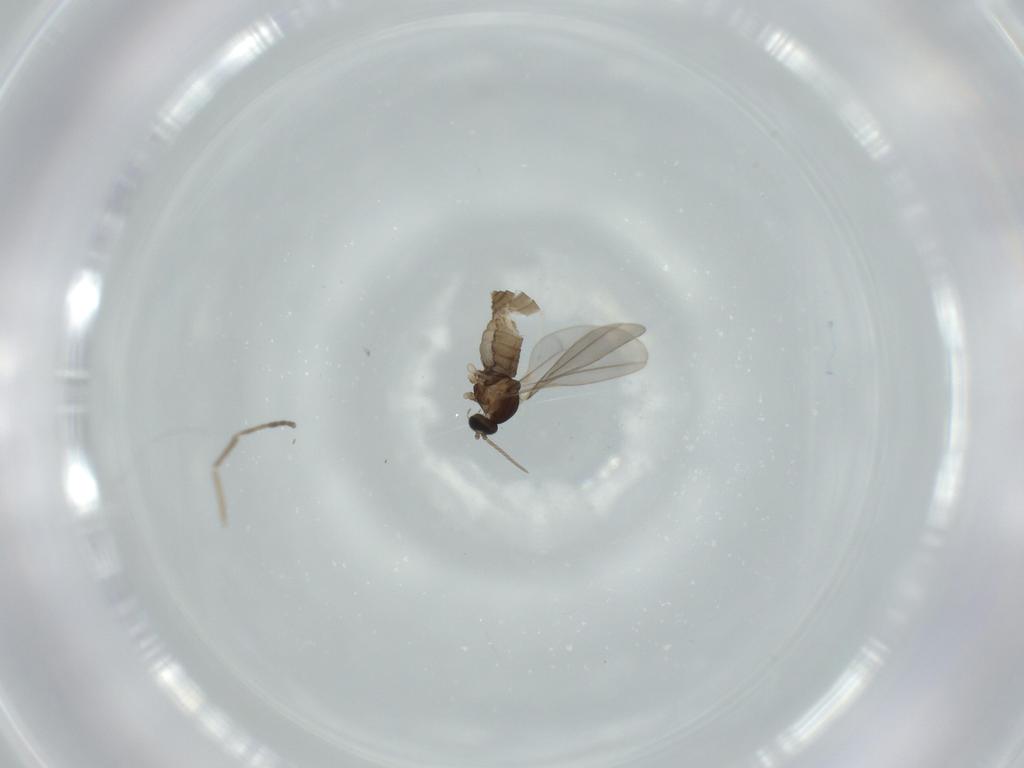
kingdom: Animalia
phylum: Arthropoda
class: Insecta
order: Diptera
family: Cecidomyiidae
